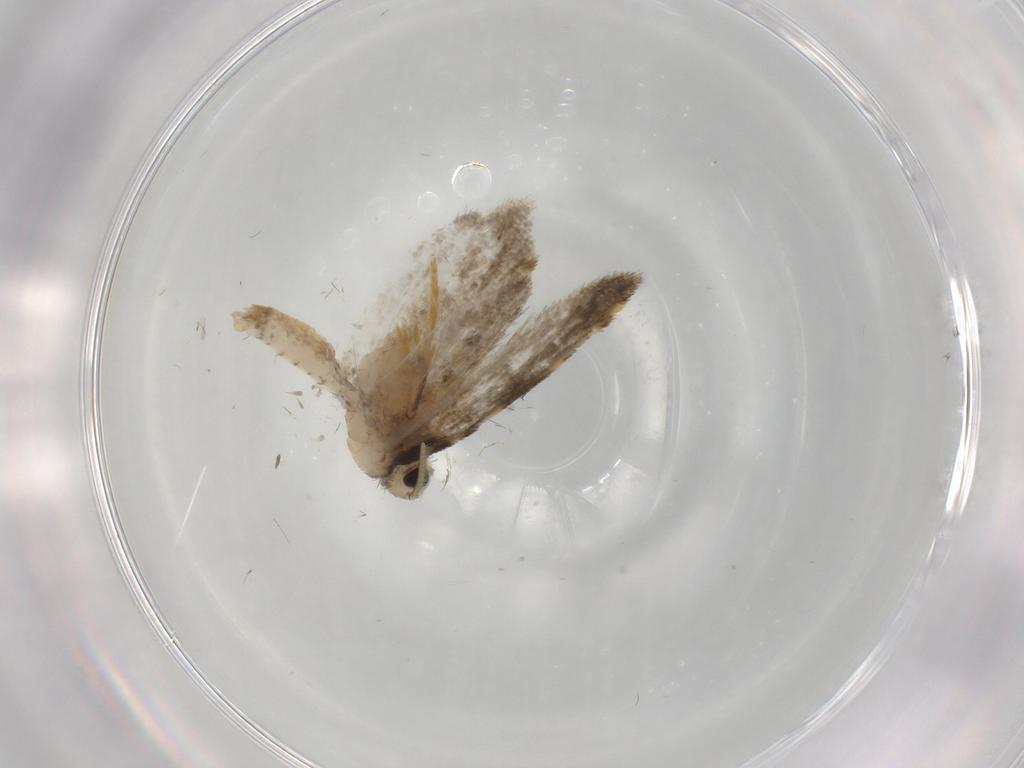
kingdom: Animalia
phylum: Arthropoda
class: Insecta
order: Lepidoptera
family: Psychidae
